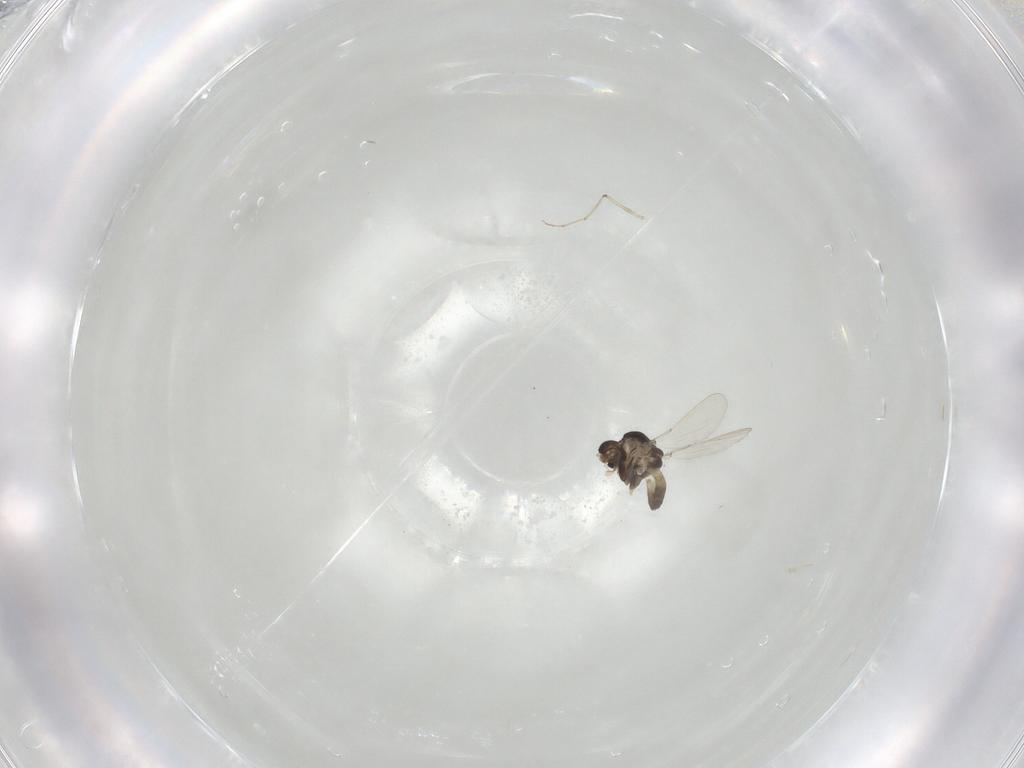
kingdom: Animalia
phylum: Arthropoda
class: Insecta
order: Diptera
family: Chironomidae
